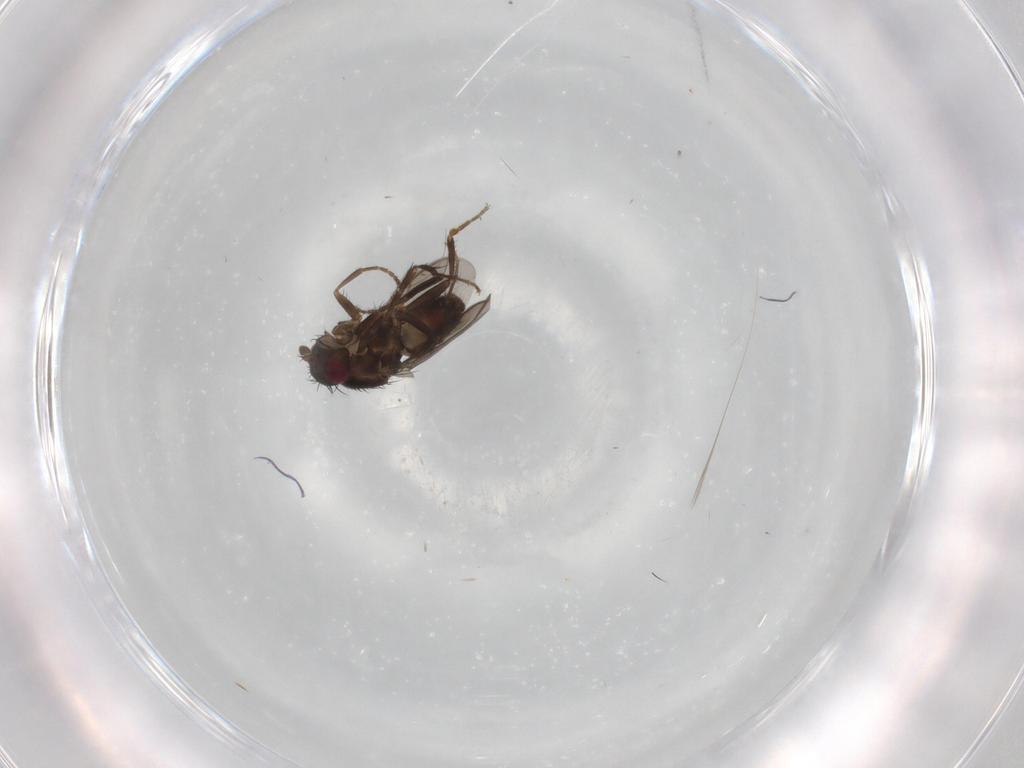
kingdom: Animalia
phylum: Arthropoda
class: Insecta
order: Diptera
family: Sphaeroceridae
